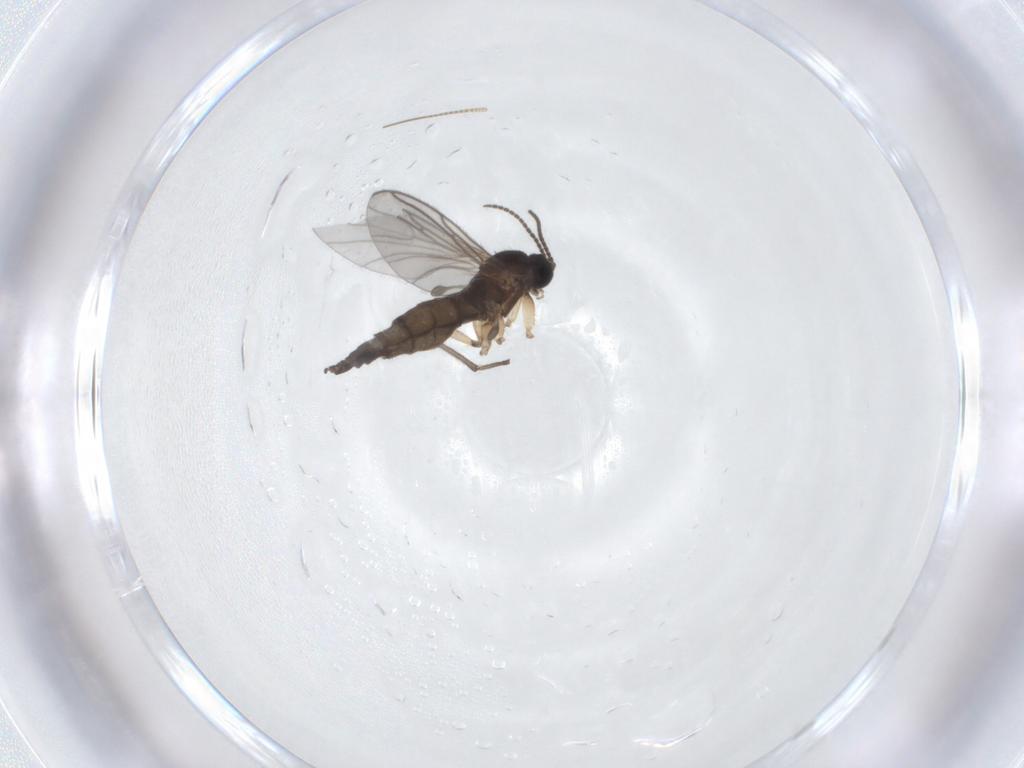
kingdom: Animalia
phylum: Arthropoda
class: Insecta
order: Diptera
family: Sciaridae
